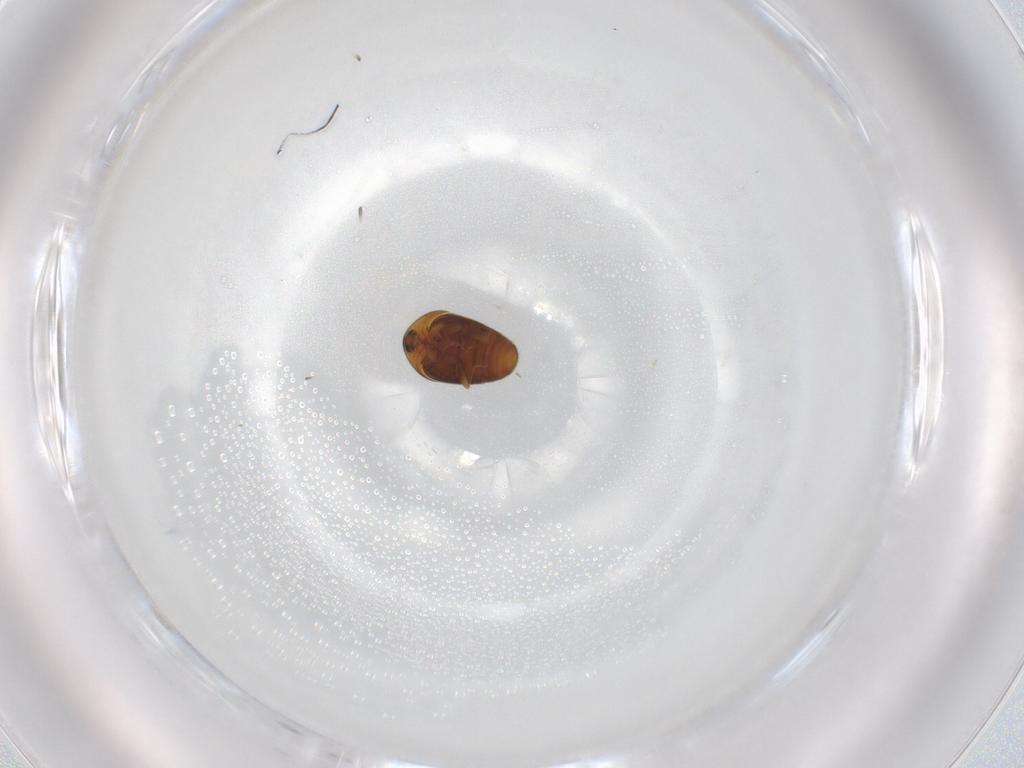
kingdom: Animalia
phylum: Arthropoda
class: Insecta
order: Coleoptera
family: Corylophidae
